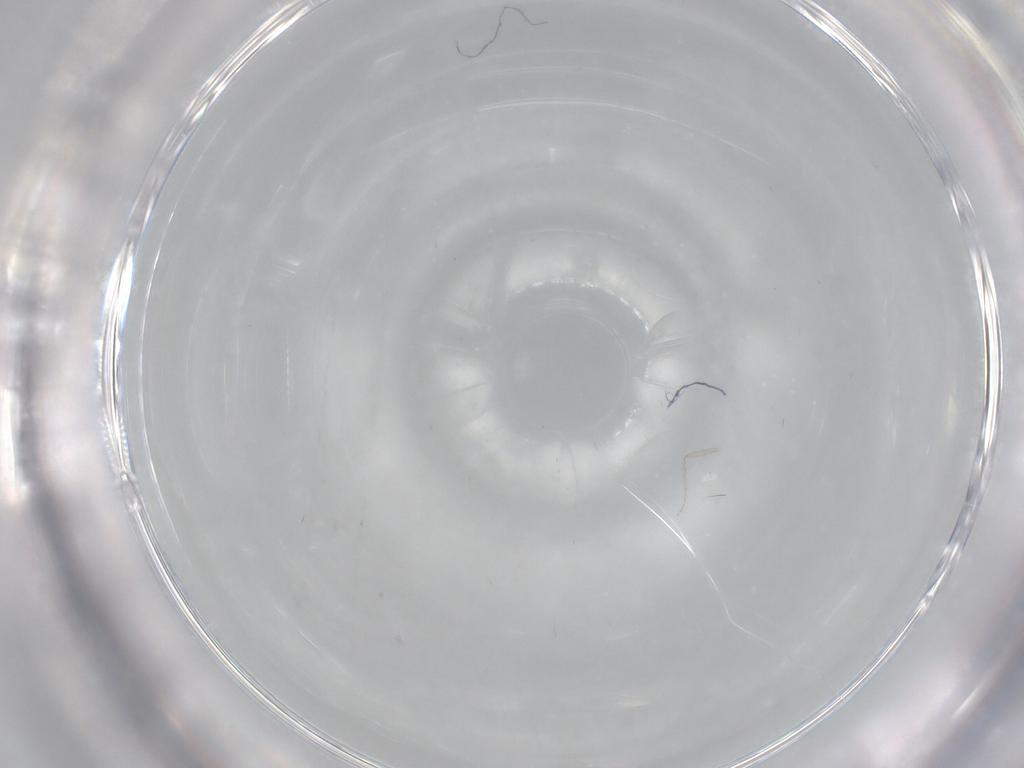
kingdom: Animalia
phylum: Arthropoda
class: Insecta
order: Diptera
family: Cecidomyiidae
